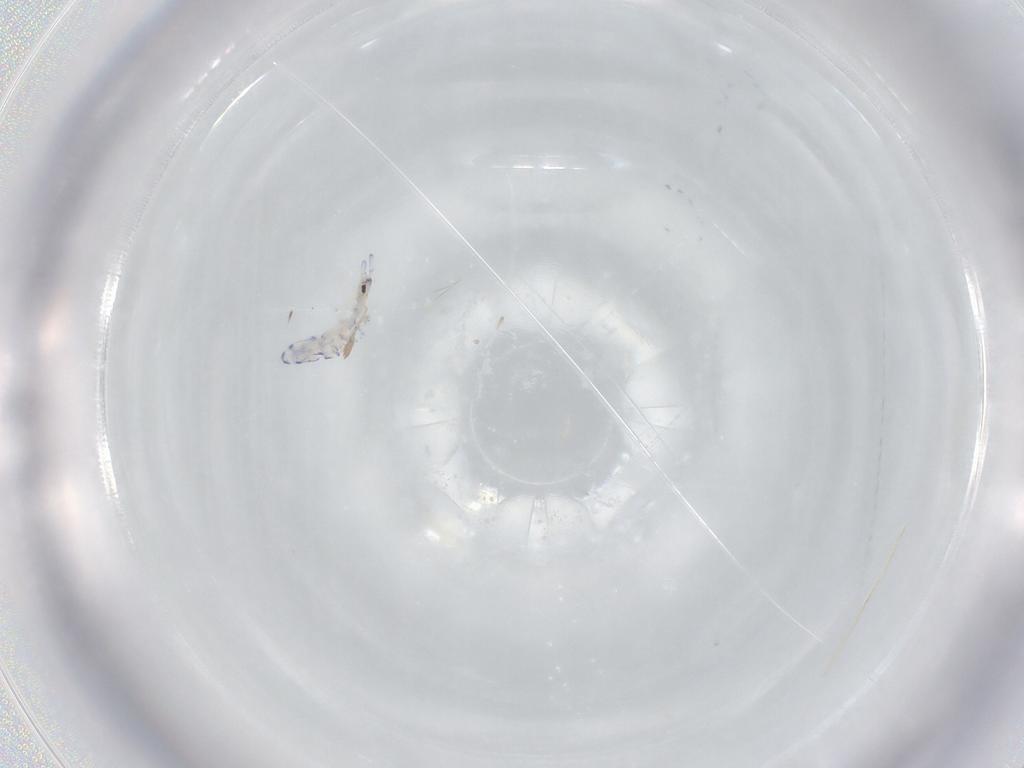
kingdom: Animalia
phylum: Arthropoda
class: Collembola
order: Entomobryomorpha
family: Entomobryidae
